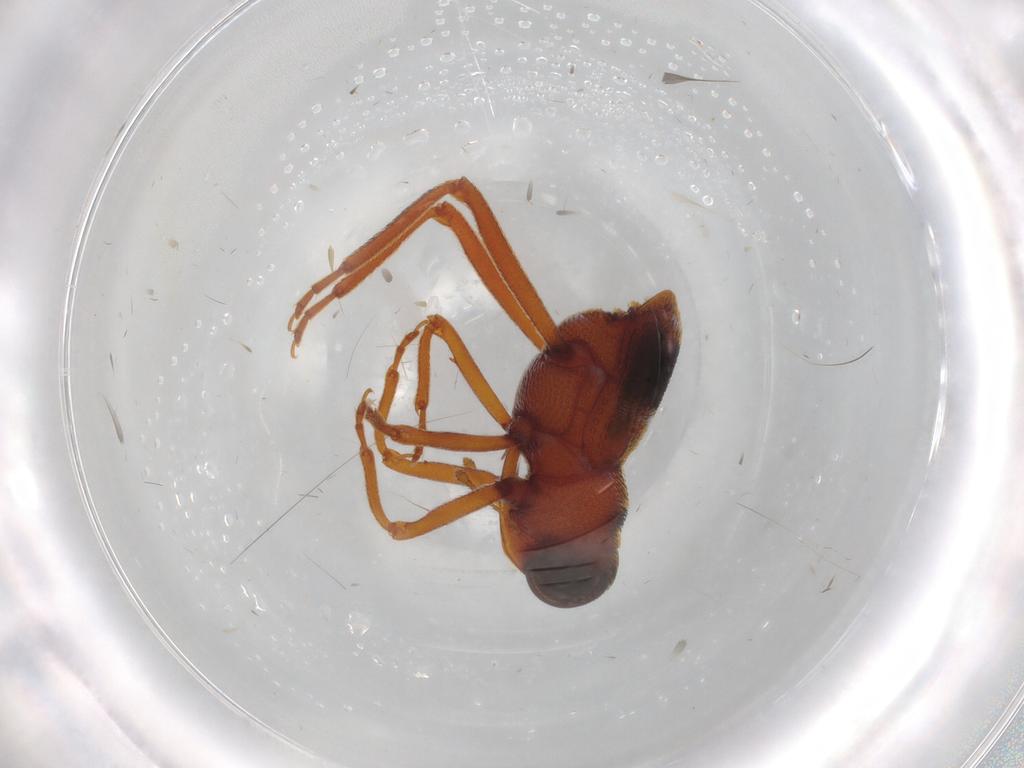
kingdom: Animalia
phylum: Arthropoda
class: Insecta
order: Coleoptera
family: Coccinellidae
